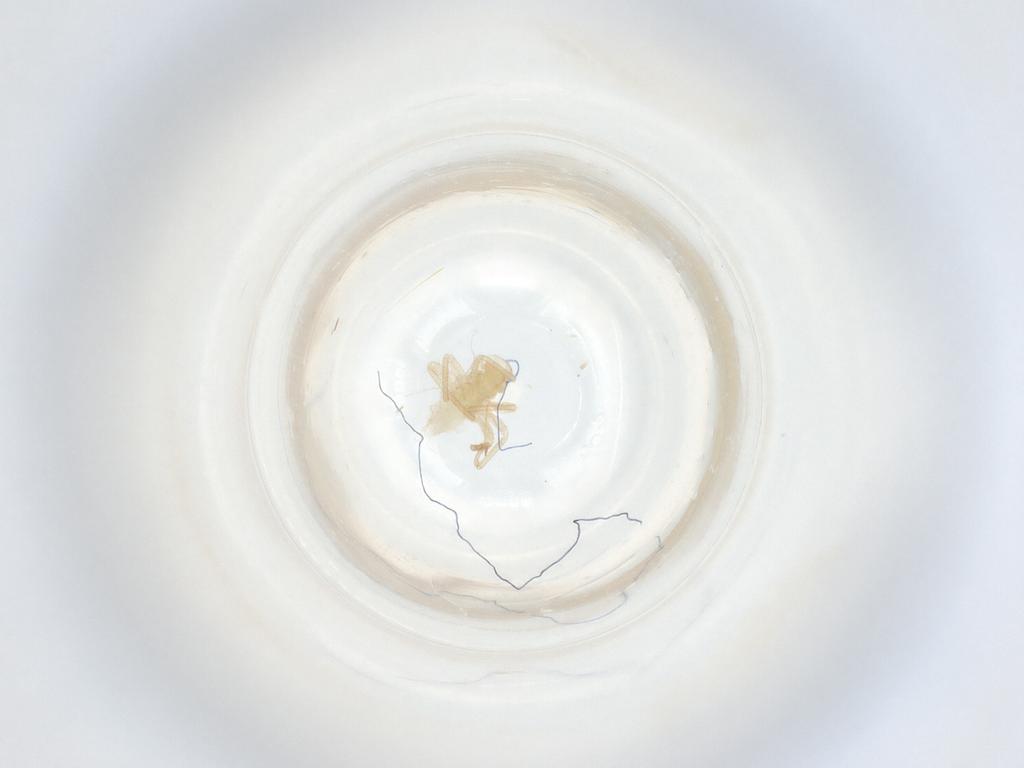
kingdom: Animalia
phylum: Arthropoda
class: Insecta
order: Hemiptera
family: Miridae
